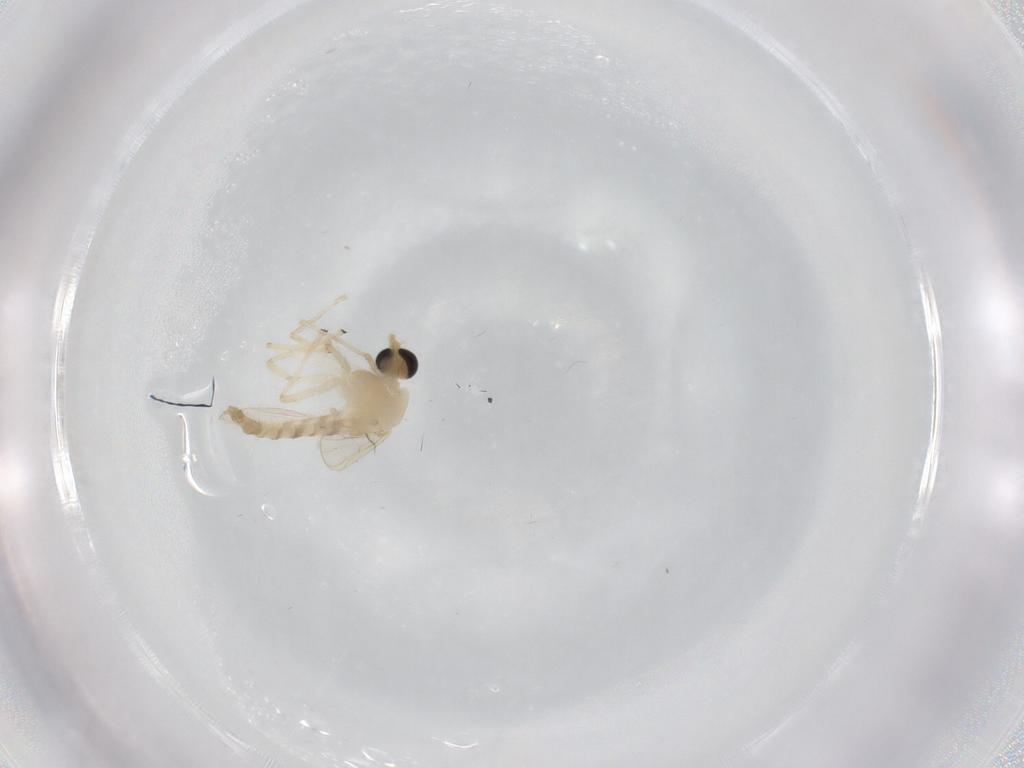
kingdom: Animalia
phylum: Arthropoda
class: Insecta
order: Diptera
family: Chironomidae
